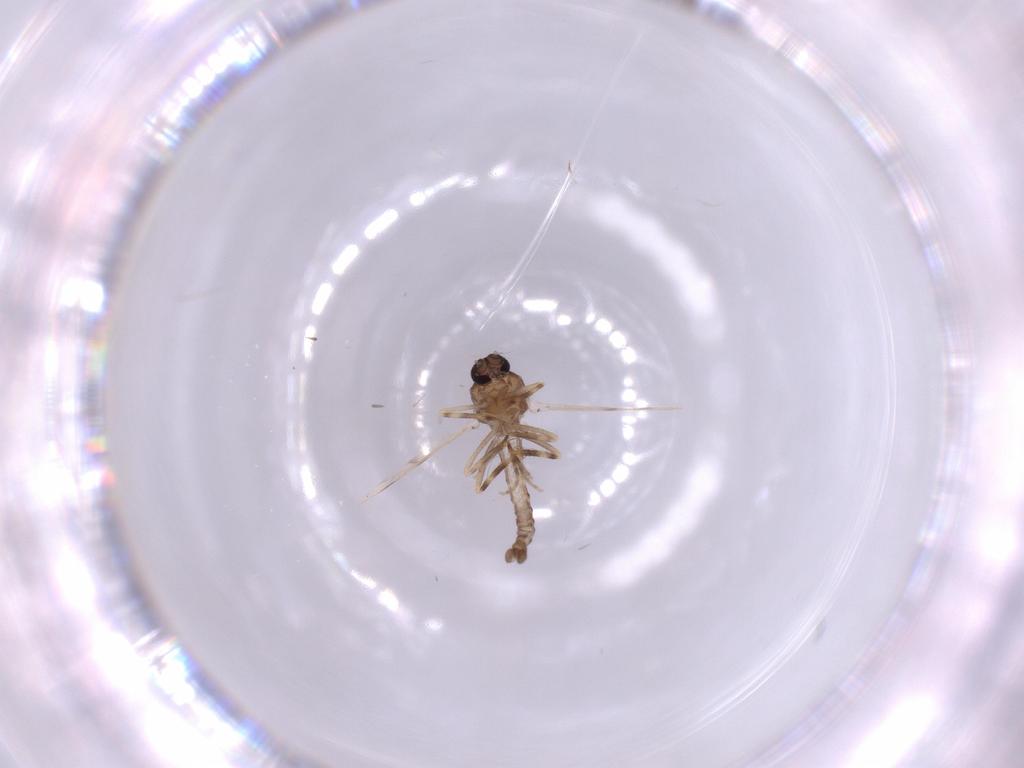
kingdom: Animalia
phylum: Arthropoda
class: Insecta
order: Diptera
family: Ceratopogonidae
